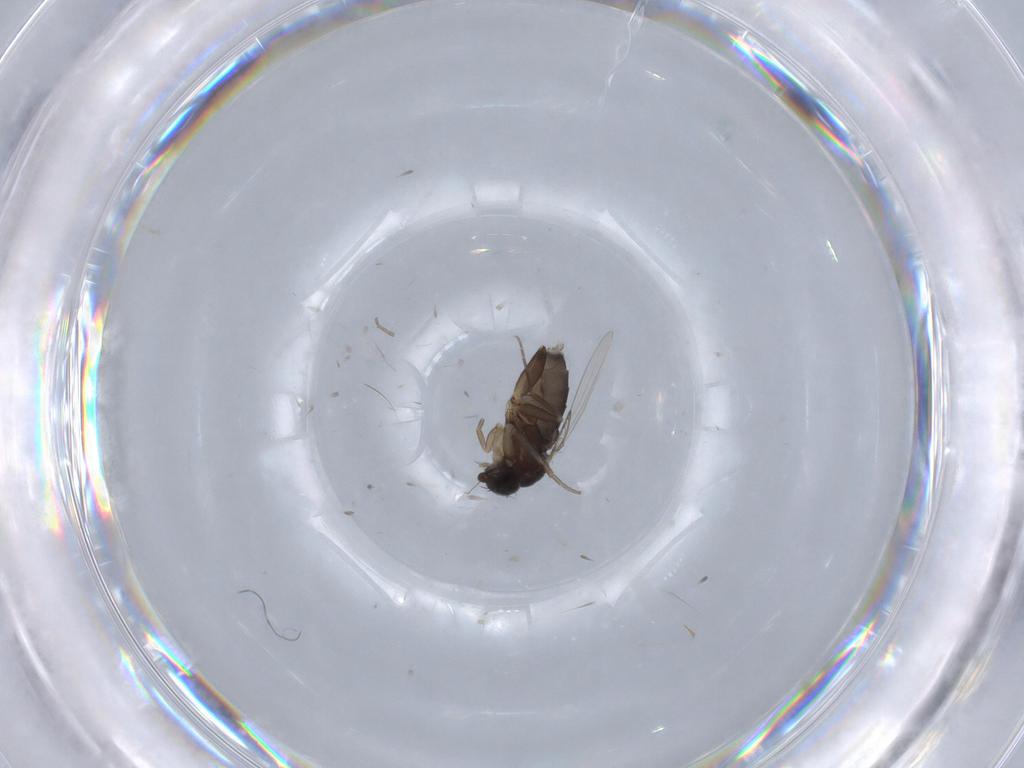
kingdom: Animalia
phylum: Arthropoda
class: Insecta
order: Diptera
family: Phoridae
